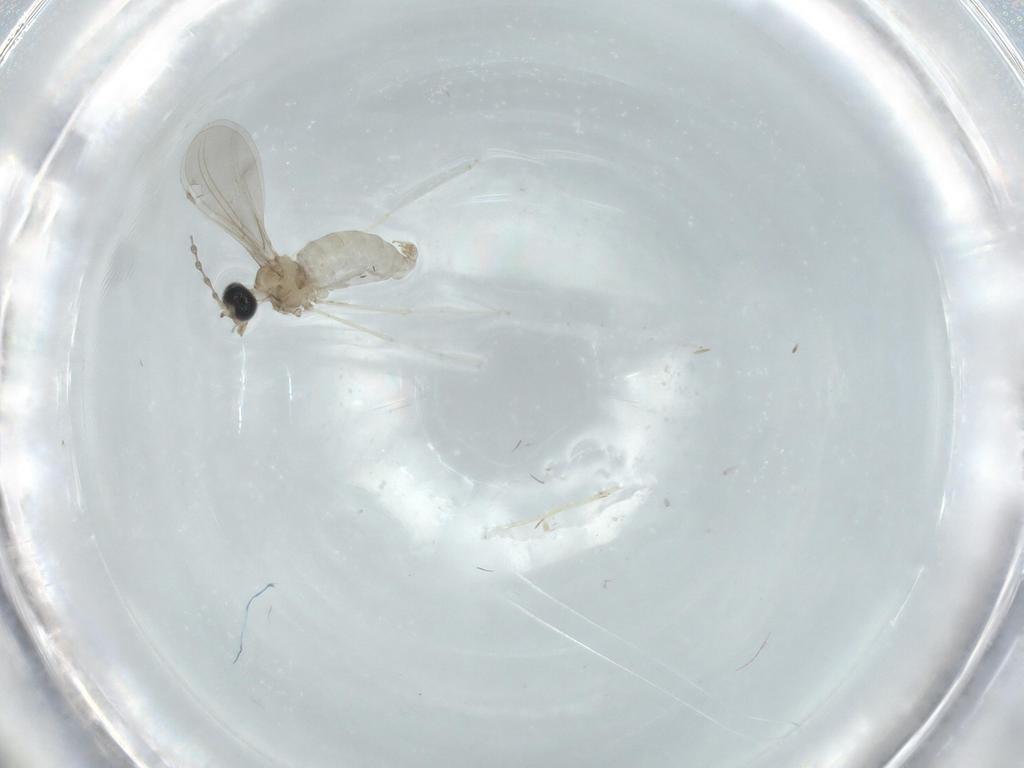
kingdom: Animalia
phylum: Arthropoda
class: Insecta
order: Diptera
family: Cecidomyiidae
